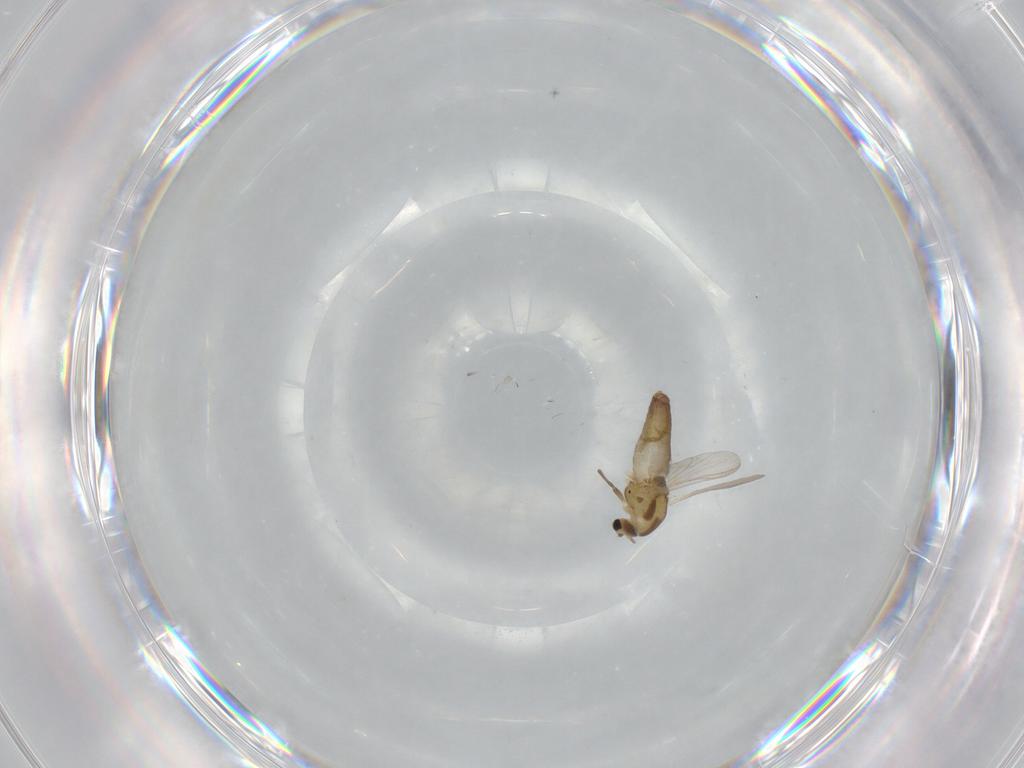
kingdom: Animalia
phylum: Arthropoda
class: Insecta
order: Diptera
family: Chironomidae
